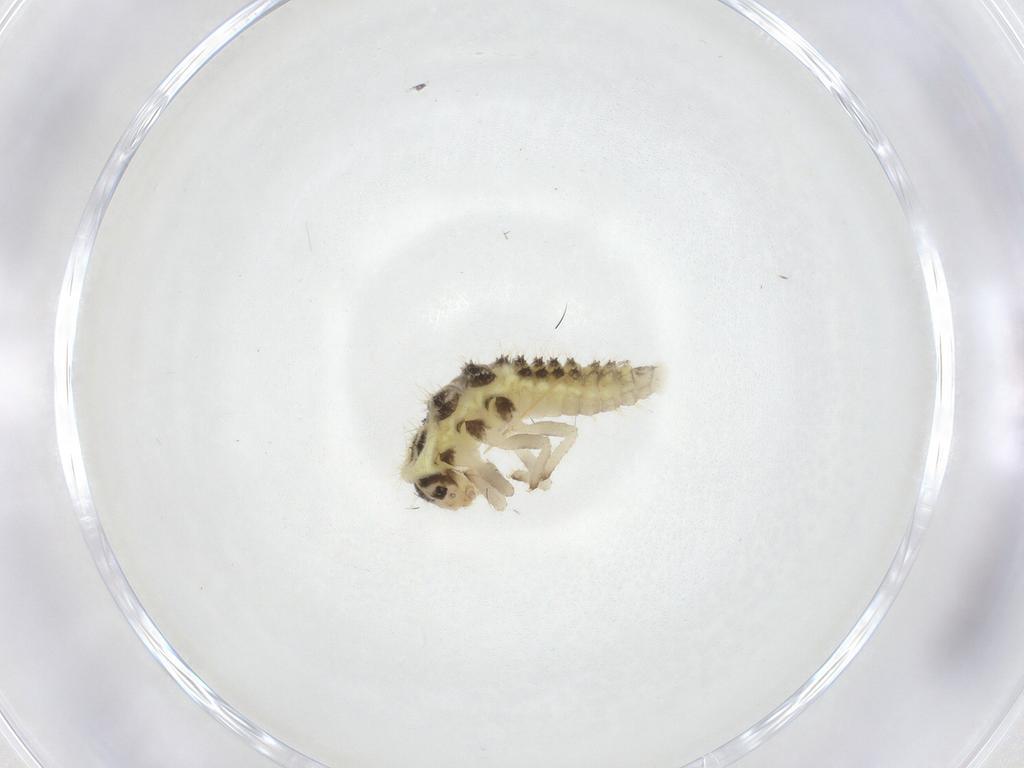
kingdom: Animalia
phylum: Arthropoda
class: Insecta
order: Coleoptera
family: Coccinellidae
